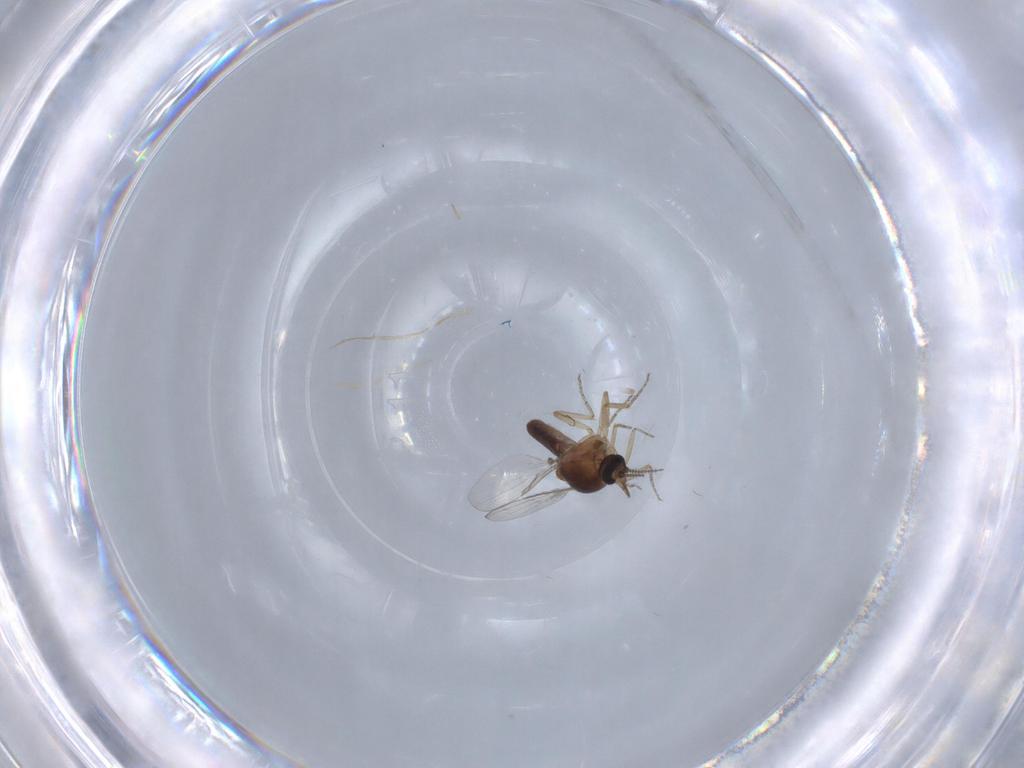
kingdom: Animalia
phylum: Arthropoda
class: Insecta
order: Diptera
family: Ceratopogonidae
